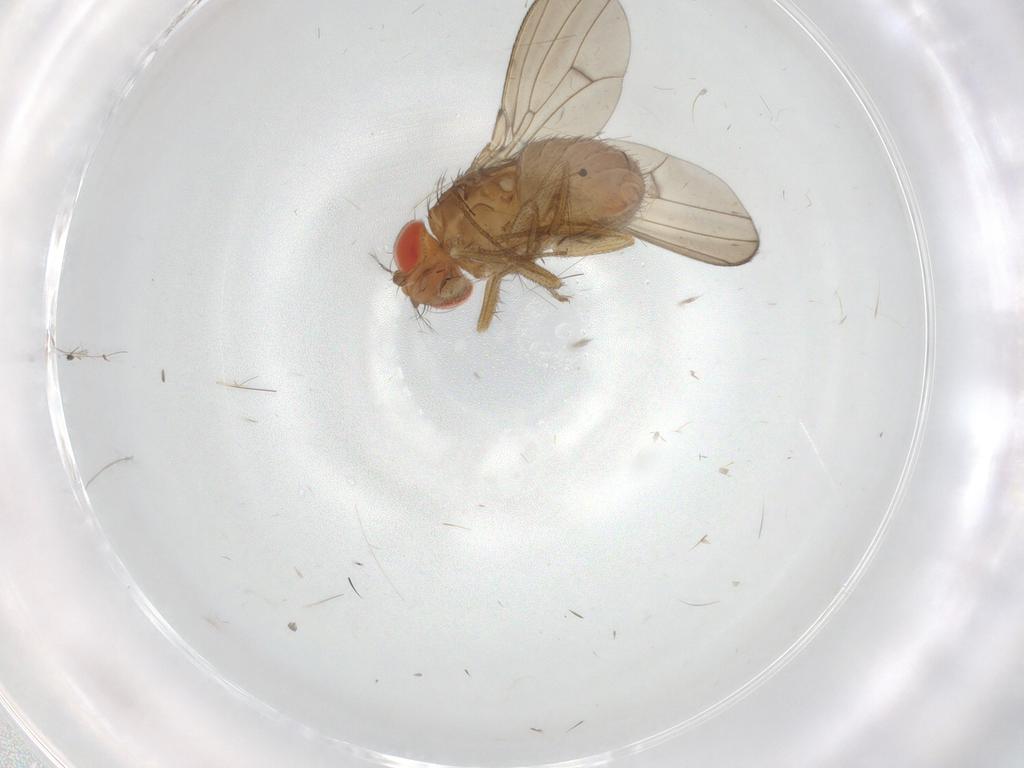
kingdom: Animalia
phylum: Arthropoda
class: Insecta
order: Diptera
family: Drosophilidae
